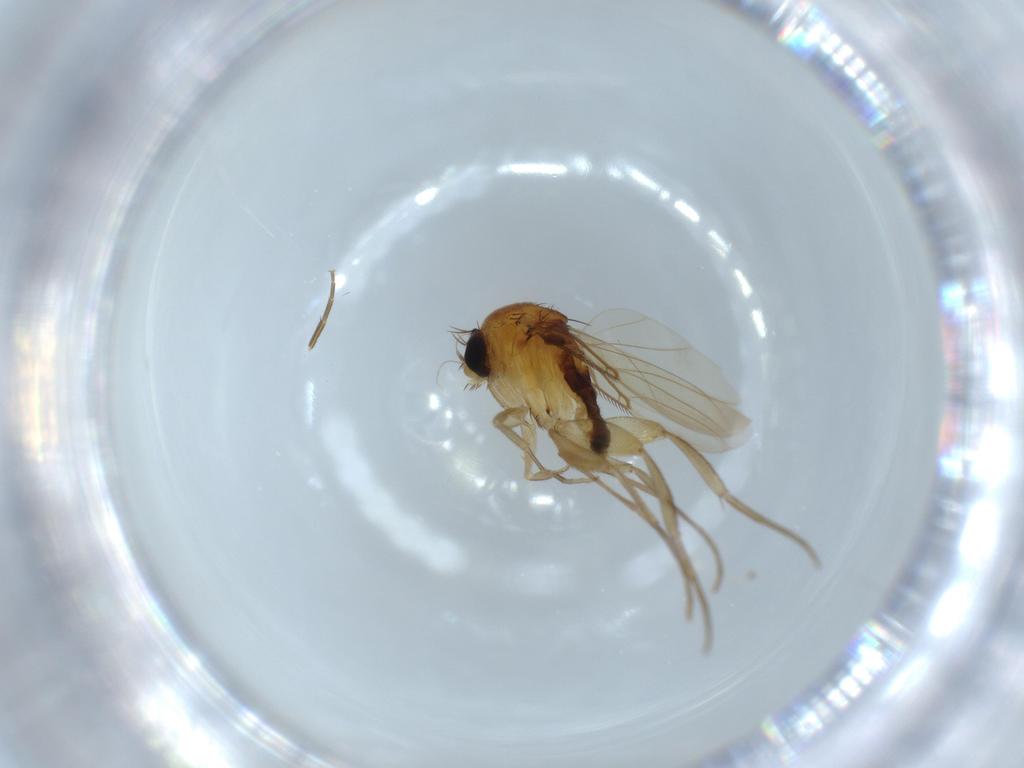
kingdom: Animalia
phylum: Arthropoda
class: Insecta
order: Diptera
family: Phoridae
